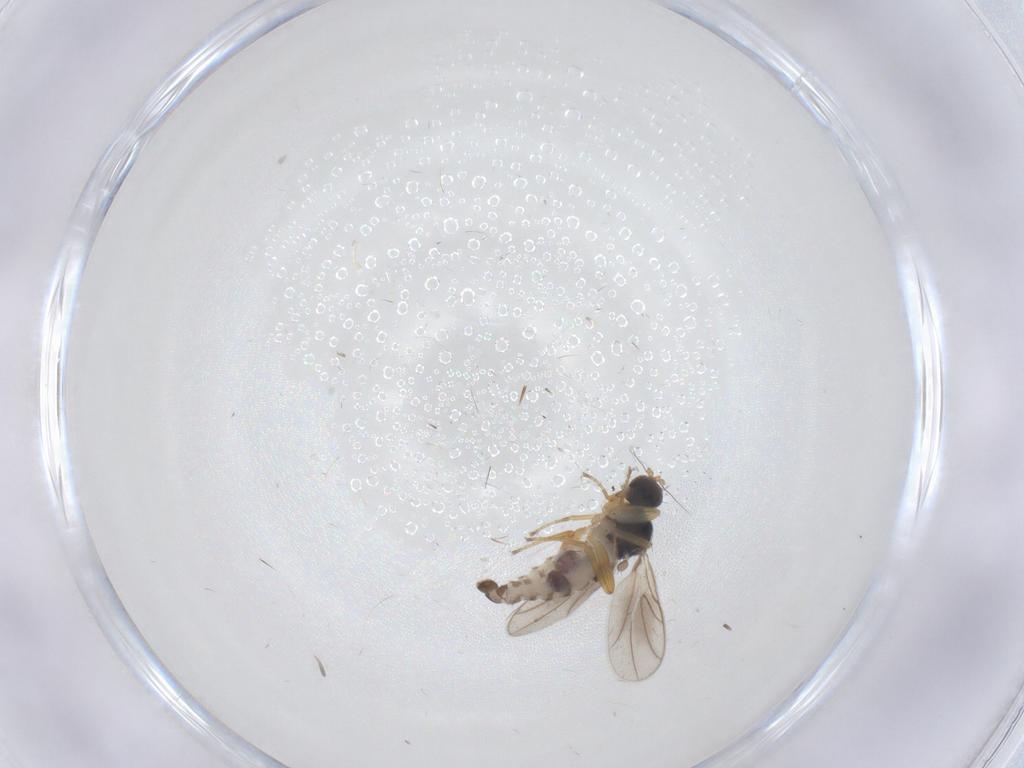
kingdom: Animalia
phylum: Arthropoda
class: Insecta
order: Diptera
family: Hybotidae
